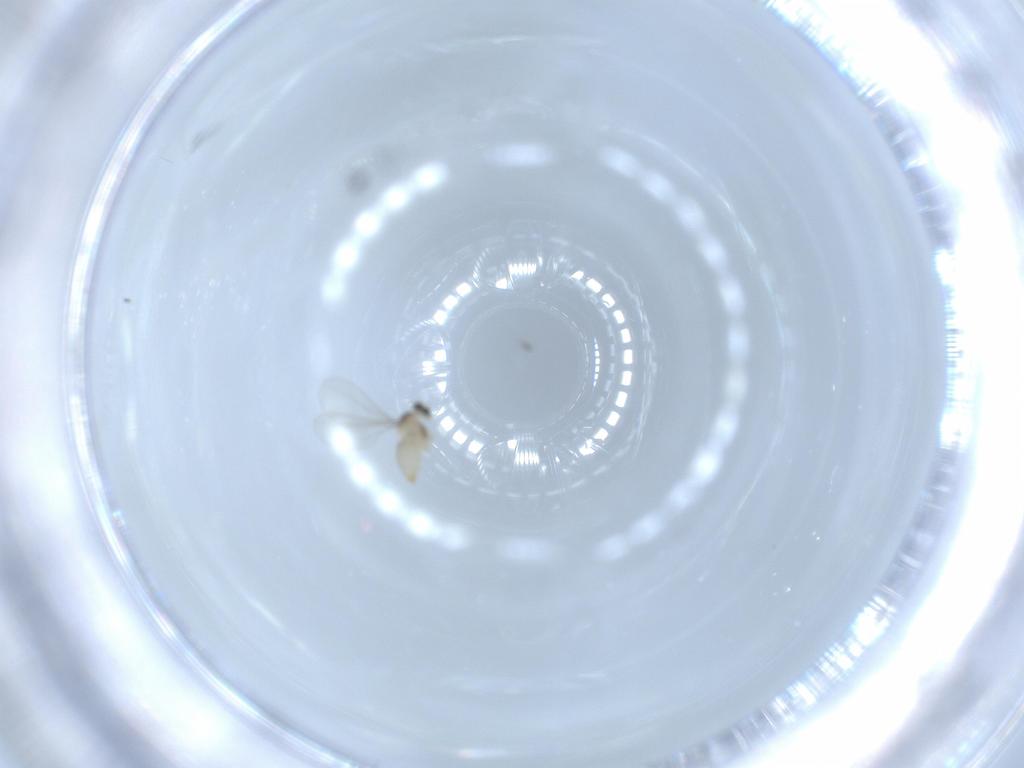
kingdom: Animalia
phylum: Arthropoda
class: Insecta
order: Diptera
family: Cecidomyiidae
